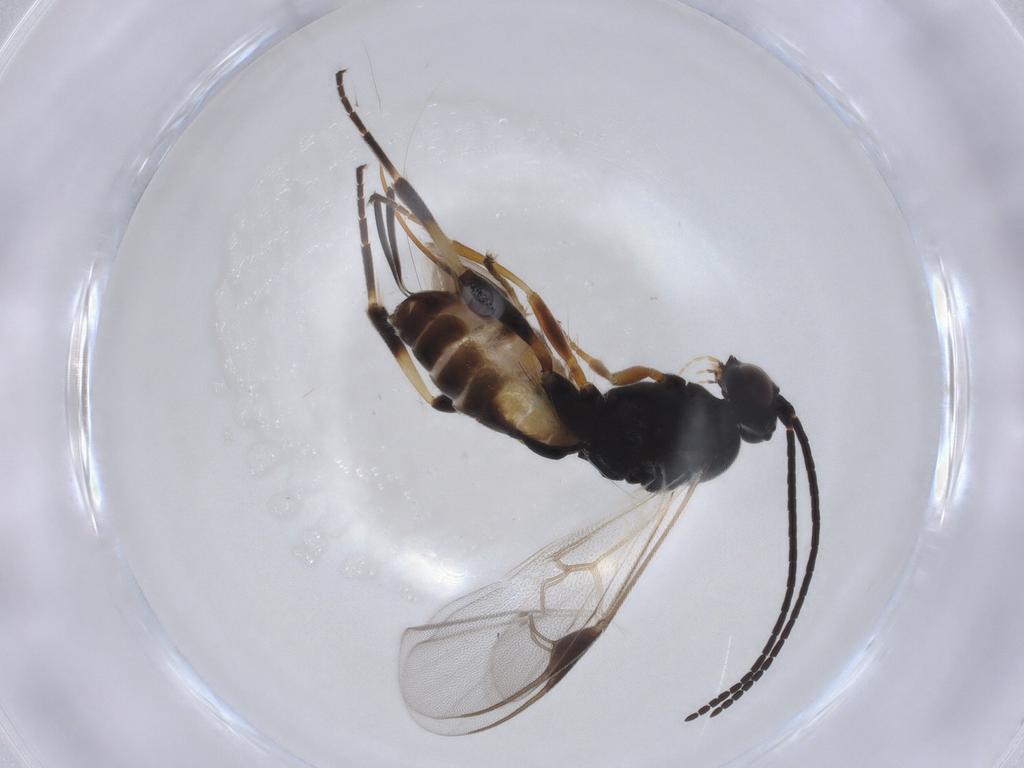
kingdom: Animalia
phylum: Arthropoda
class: Insecta
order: Hymenoptera
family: Braconidae
